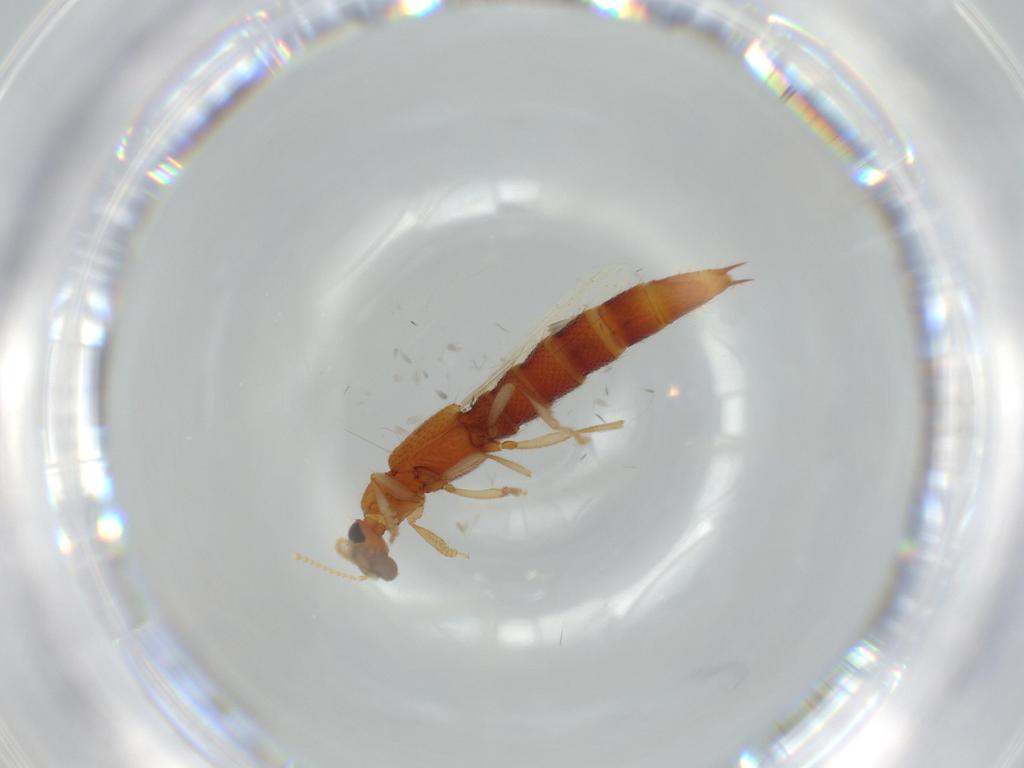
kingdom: Animalia
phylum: Arthropoda
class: Insecta
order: Coleoptera
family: Staphylinidae
